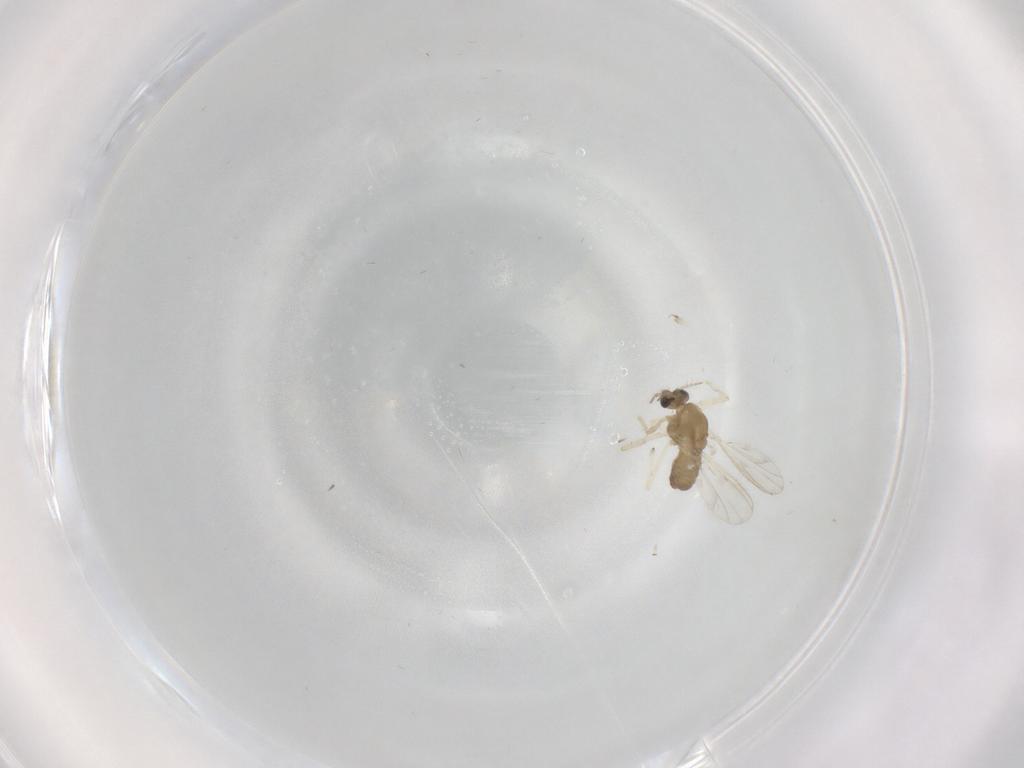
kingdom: Animalia
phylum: Arthropoda
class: Insecta
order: Diptera
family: Chironomidae
